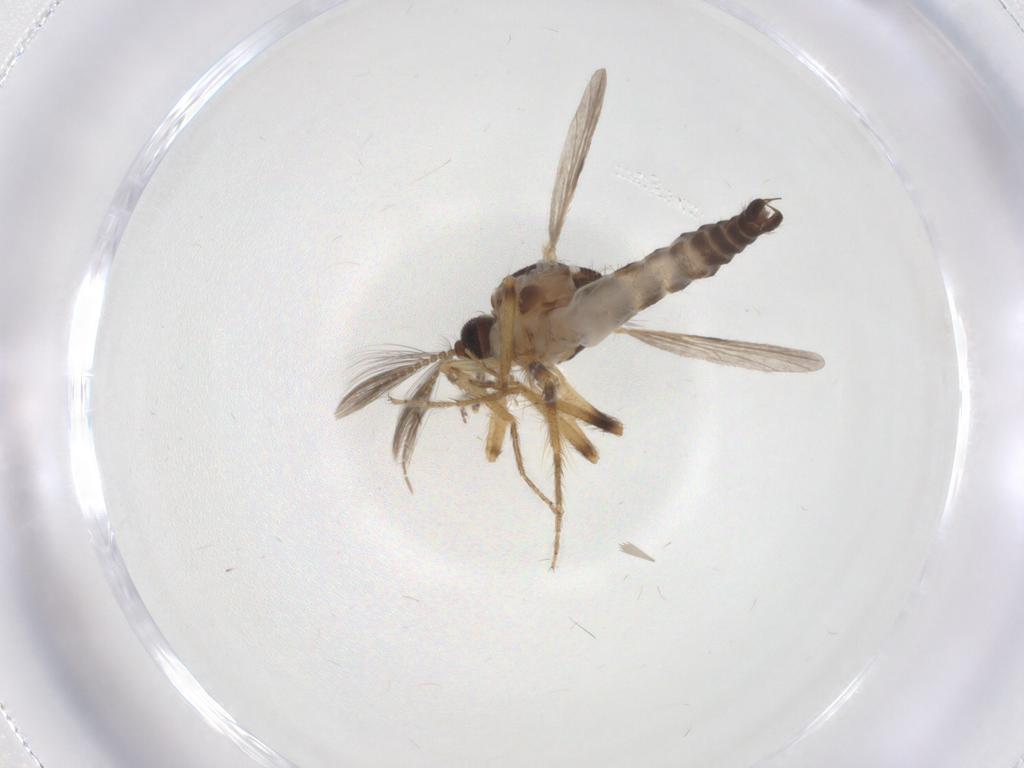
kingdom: Animalia
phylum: Arthropoda
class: Insecta
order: Diptera
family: Ceratopogonidae
